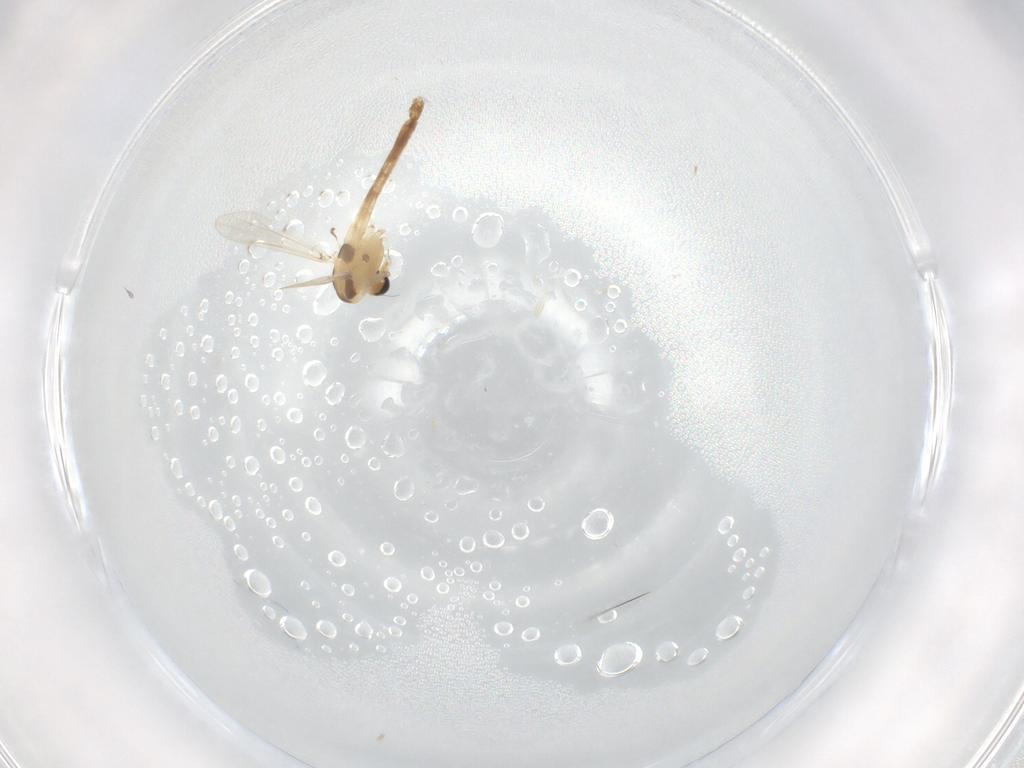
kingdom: Animalia
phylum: Arthropoda
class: Insecta
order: Diptera
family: Chironomidae
